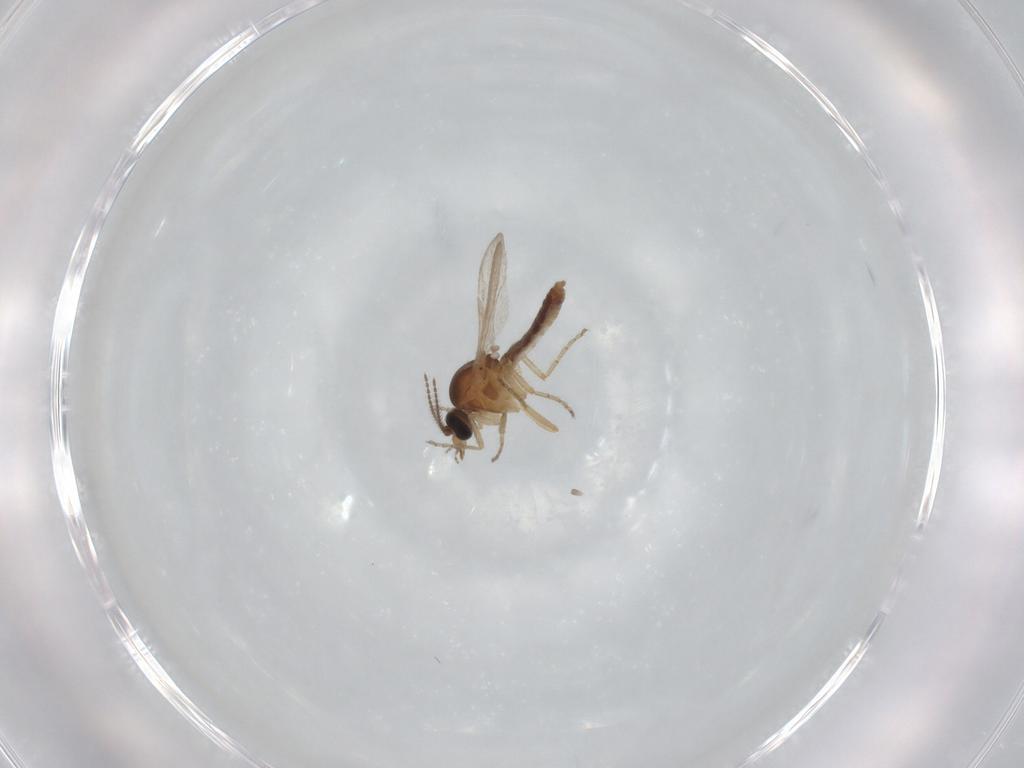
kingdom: Animalia
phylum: Arthropoda
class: Insecta
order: Diptera
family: Ceratopogonidae
